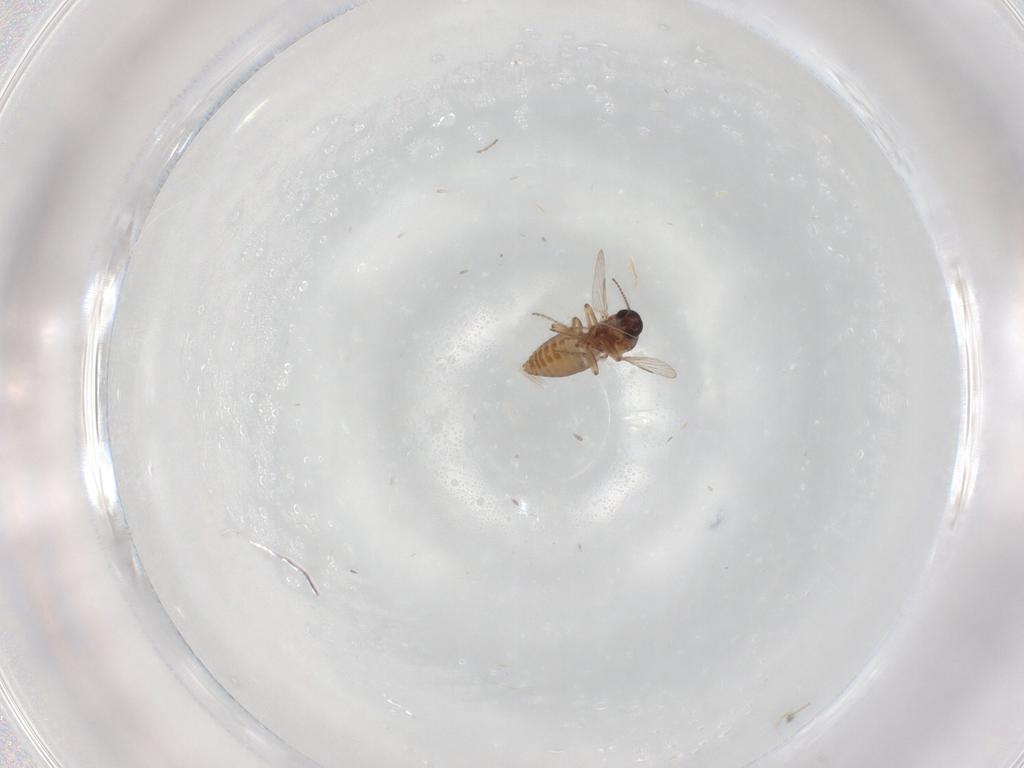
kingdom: Animalia
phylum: Arthropoda
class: Insecta
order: Diptera
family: Ceratopogonidae
